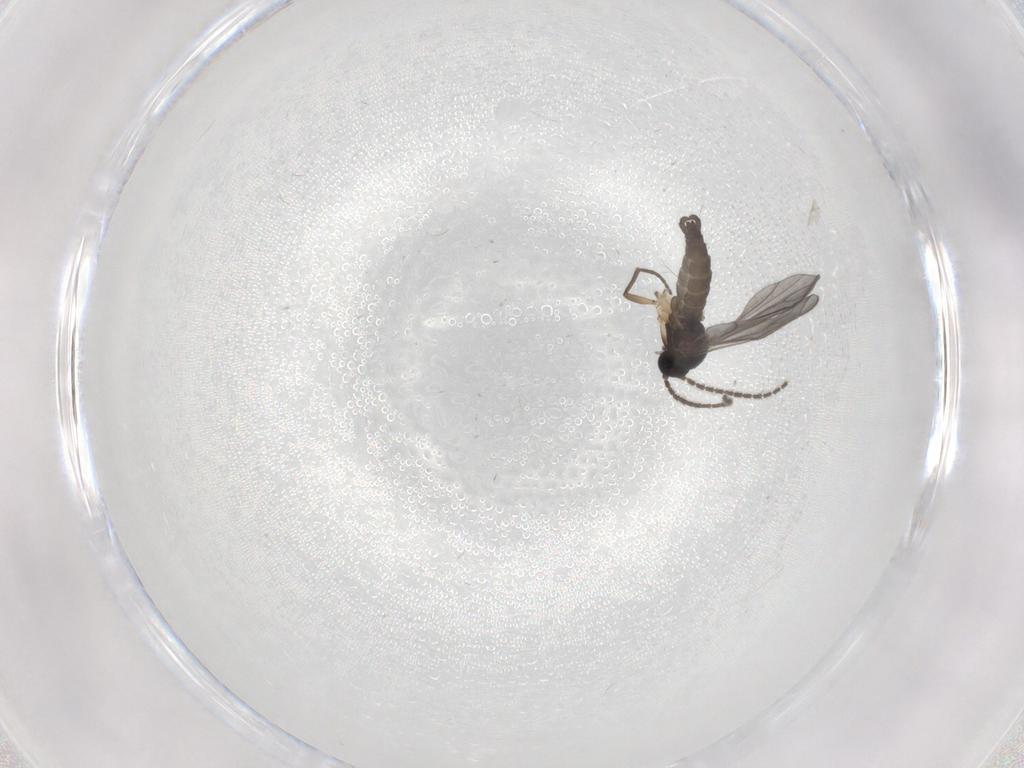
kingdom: Animalia
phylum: Arthropoda
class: Insecta
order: Diptera
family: Sciaridae
